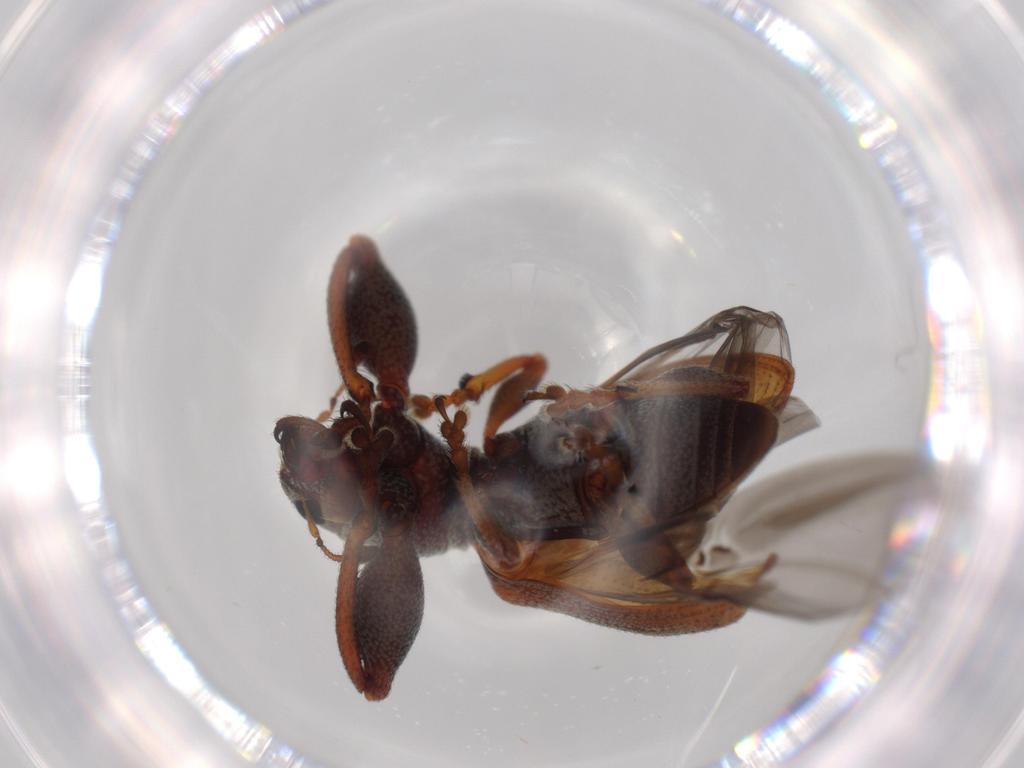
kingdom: Animalia
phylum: Arthropoda
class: Insecta
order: Coleoptera
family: Curculionidae
